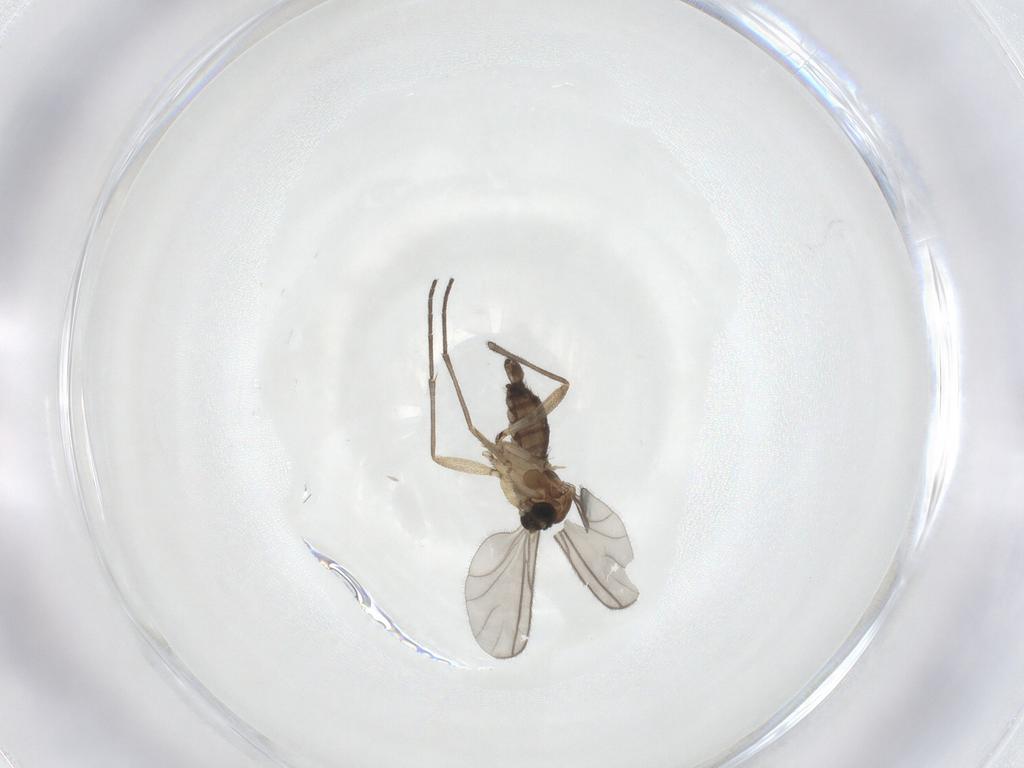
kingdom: Animalia
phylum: Arthropoda
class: Insecta
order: Diptera
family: Sciaridae
